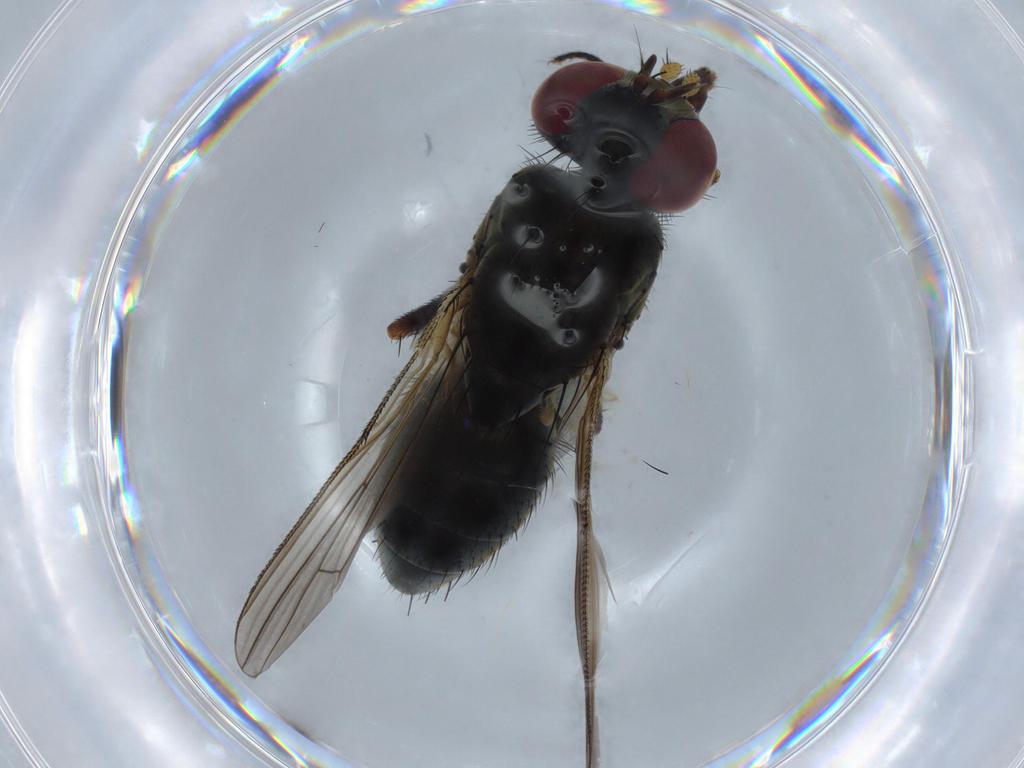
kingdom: Animalia
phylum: Arthropoda
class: Insecta
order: Diptera
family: Muscidae
